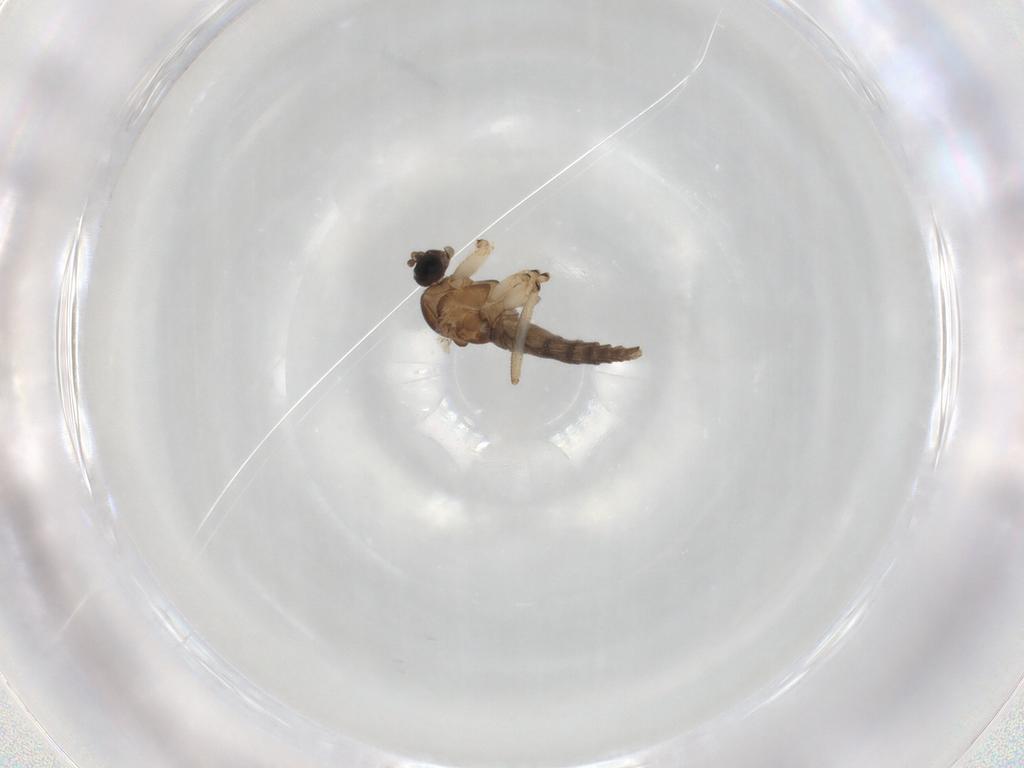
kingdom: Animalia
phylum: Arthropoda
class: Insecta
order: Diptera
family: Sciaridae
